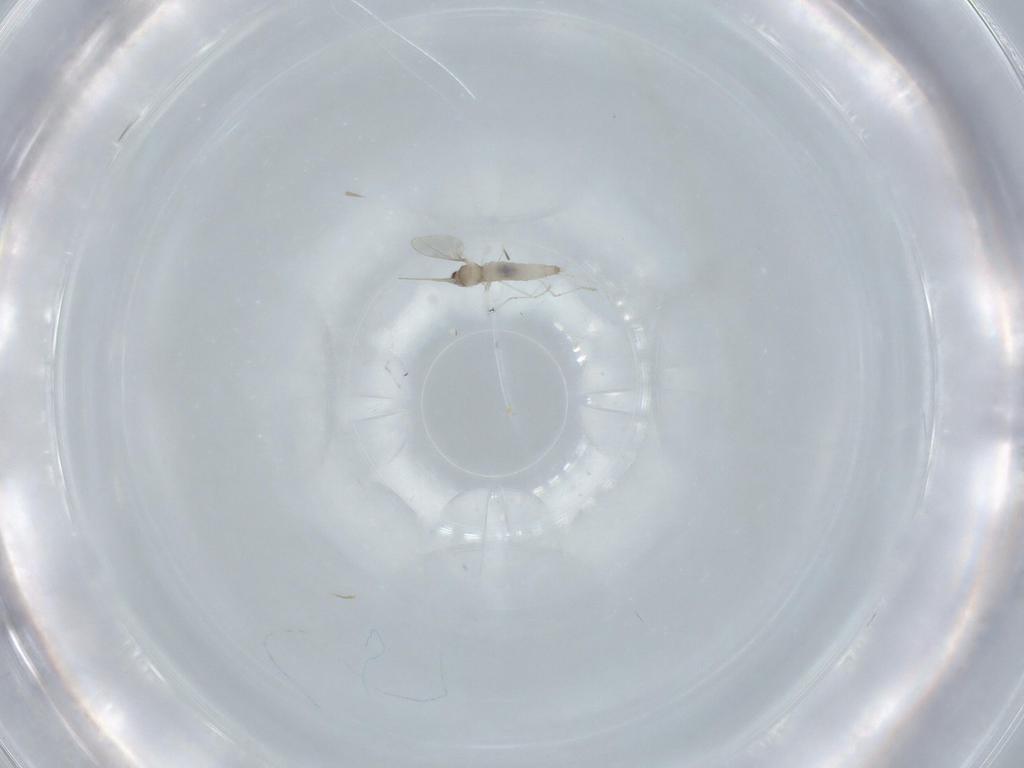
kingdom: Animalia
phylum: Arthropoda
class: Insecta
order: Diptera
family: Cecidomyiidae
